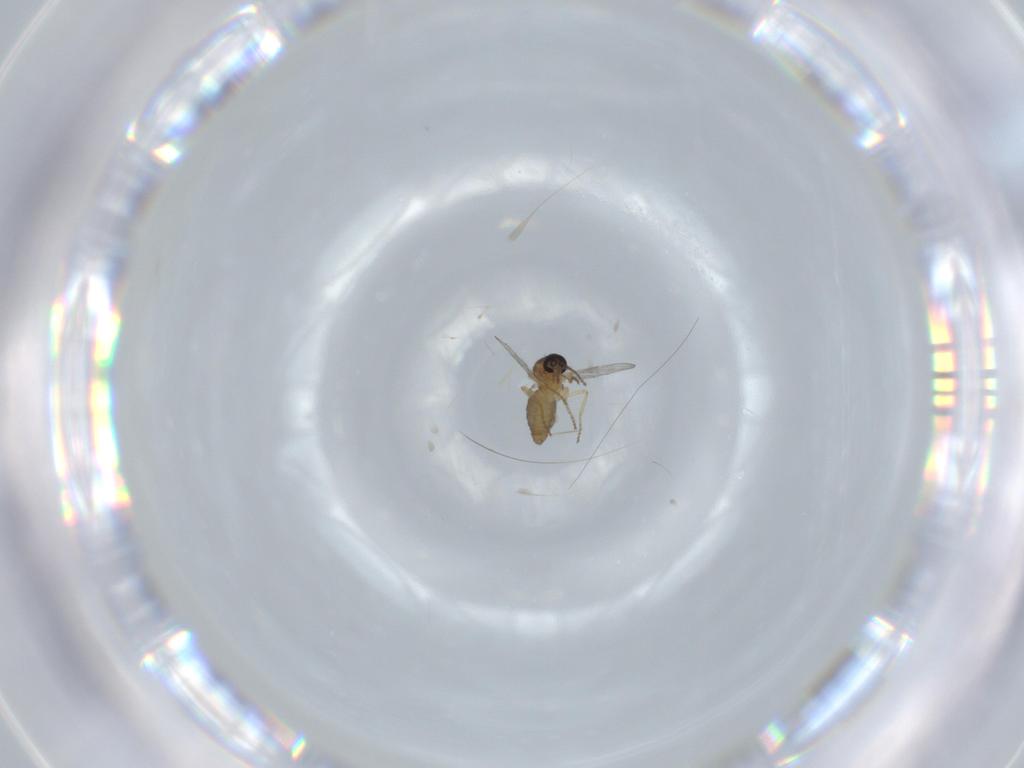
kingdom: Animalia
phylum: Arthropoda
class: Insecta
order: Diptera
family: Ceratopogonidae
